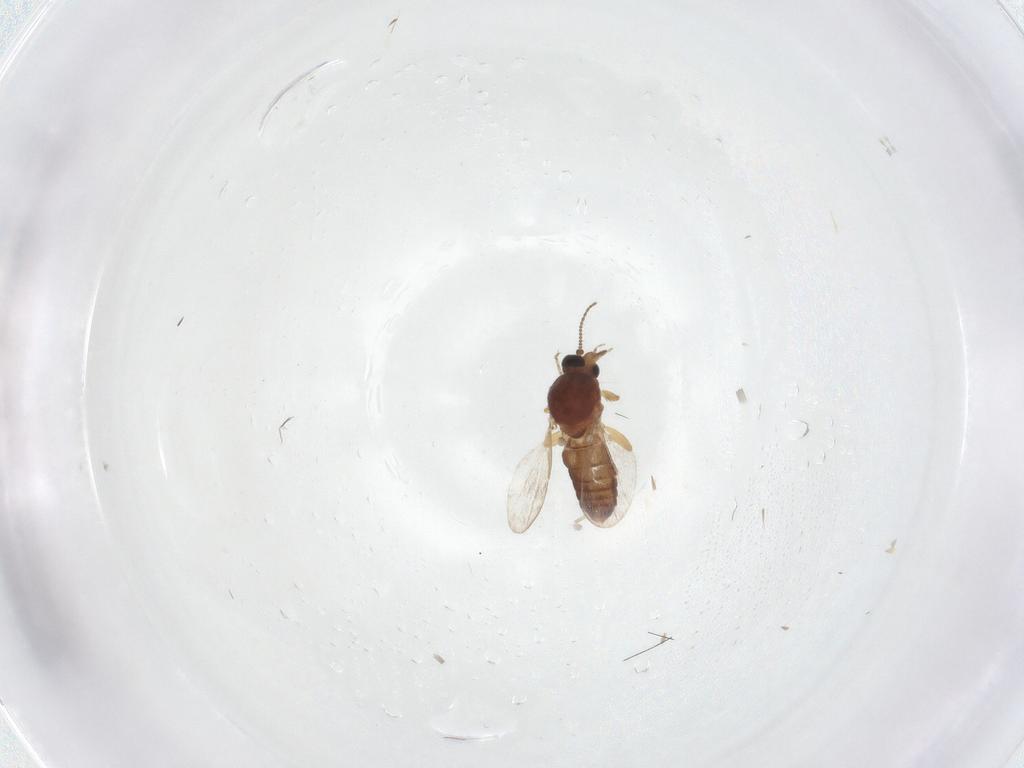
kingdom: Animalia
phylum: Arthropoda
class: Insecta
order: Diptera
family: Ceratopogonidae
